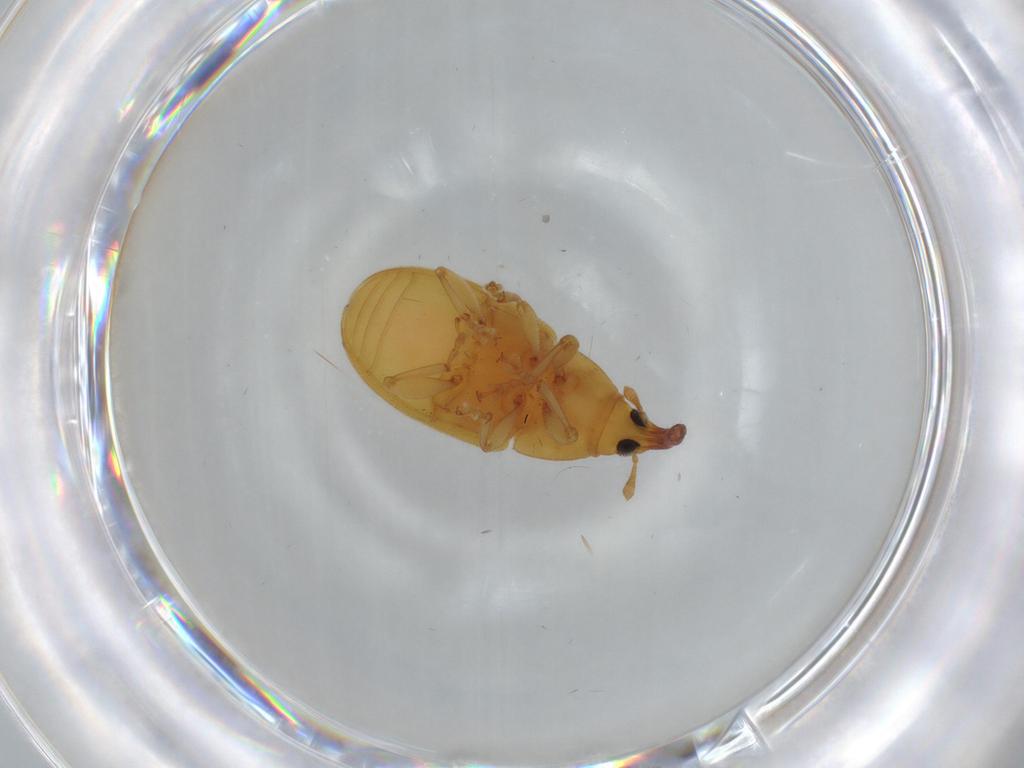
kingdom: Animalia
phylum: Arthropoda
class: Insecta
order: Coleoptera
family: Curculionidae
